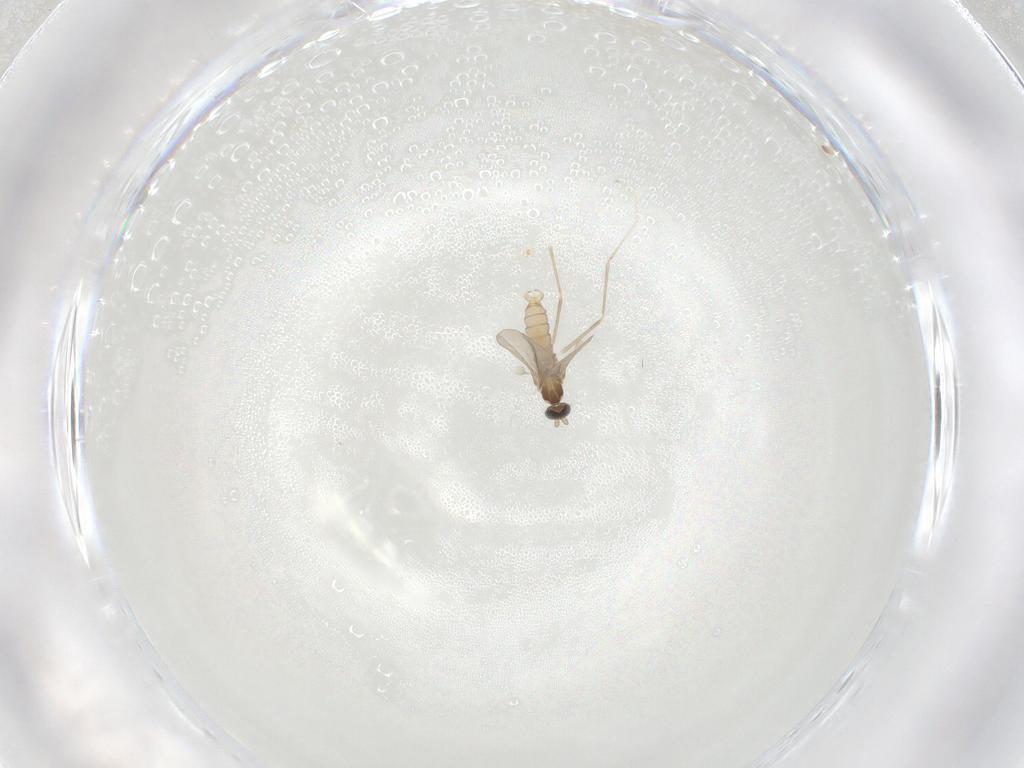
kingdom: Animalia
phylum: Arthropoda
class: Insecta
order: Diptera
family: Cecidomyiidae
